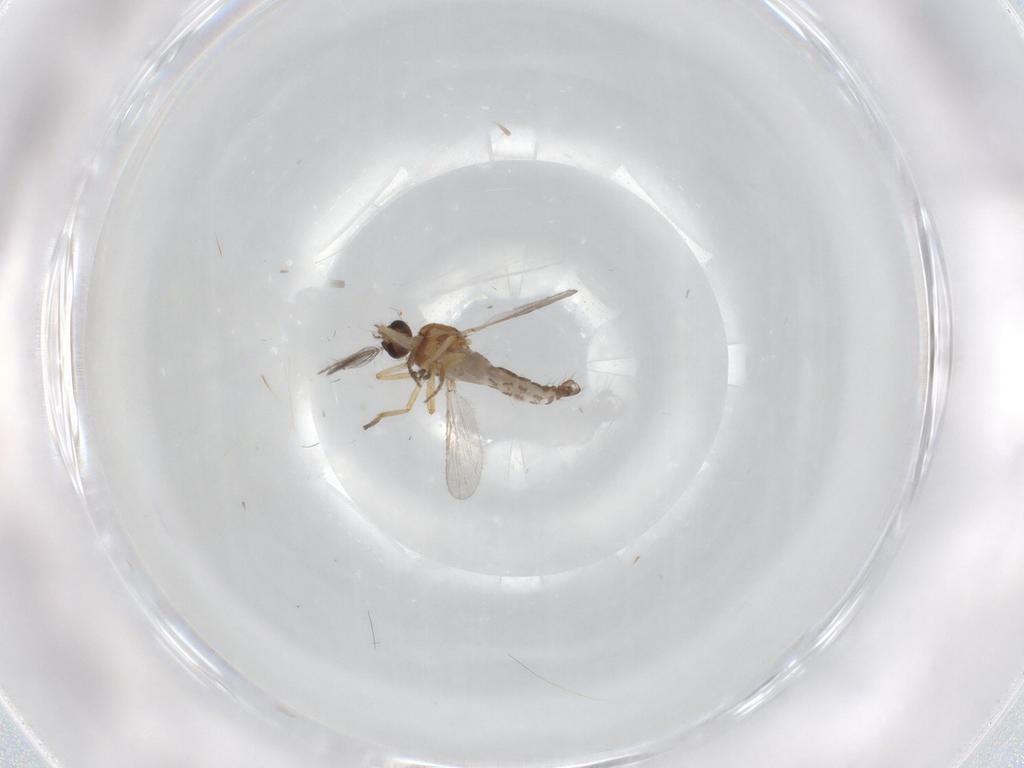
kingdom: Animalia
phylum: Arthropoda
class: Insecta
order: Diptera
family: Ceratopogonidae
